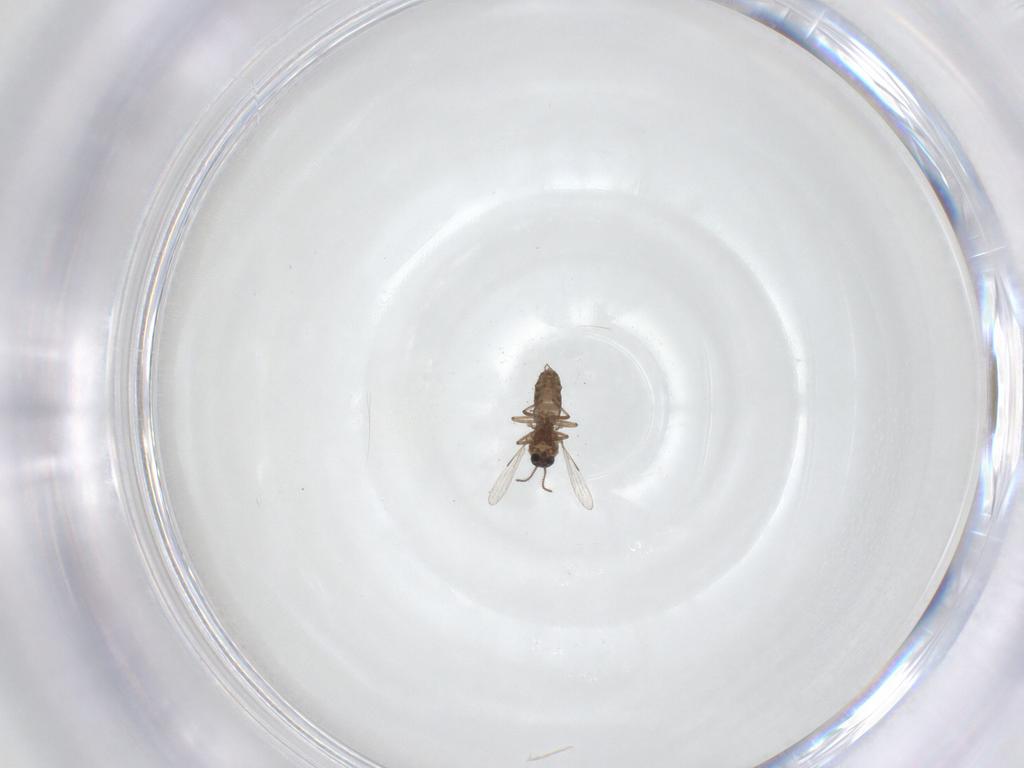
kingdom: Animalia
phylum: Arthropoda
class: Insecta
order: Diptera
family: Ceratopogonidae
